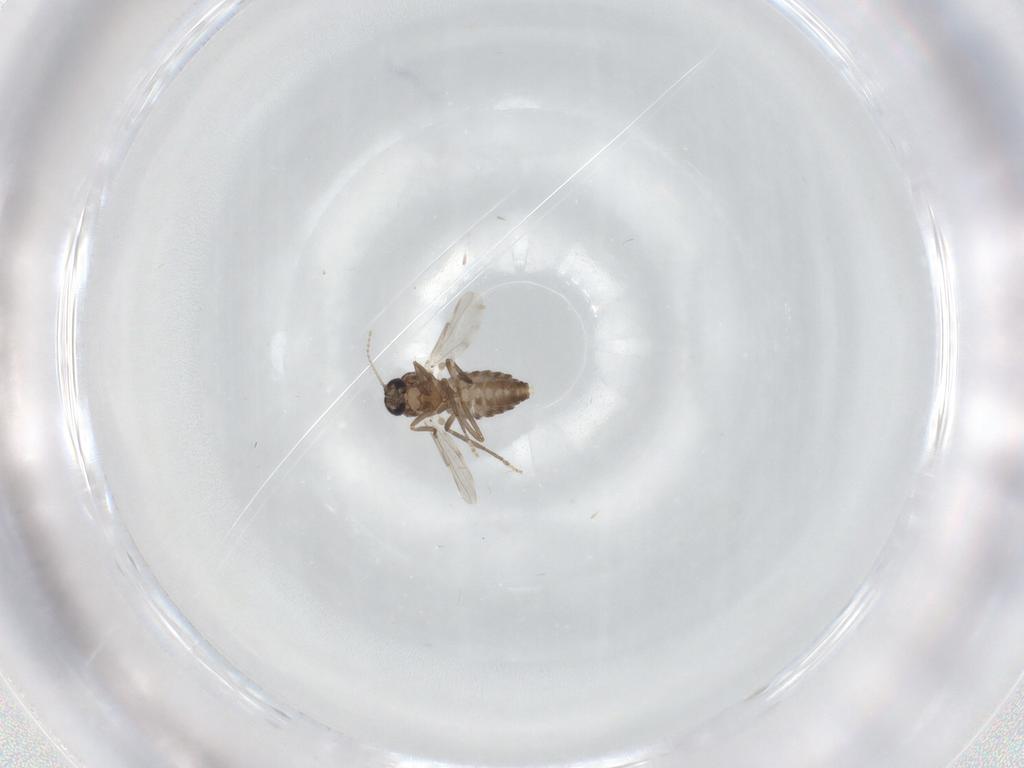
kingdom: Animalia
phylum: Arthropoda
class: Insecta
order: Diptera
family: Ceratopogonidae
